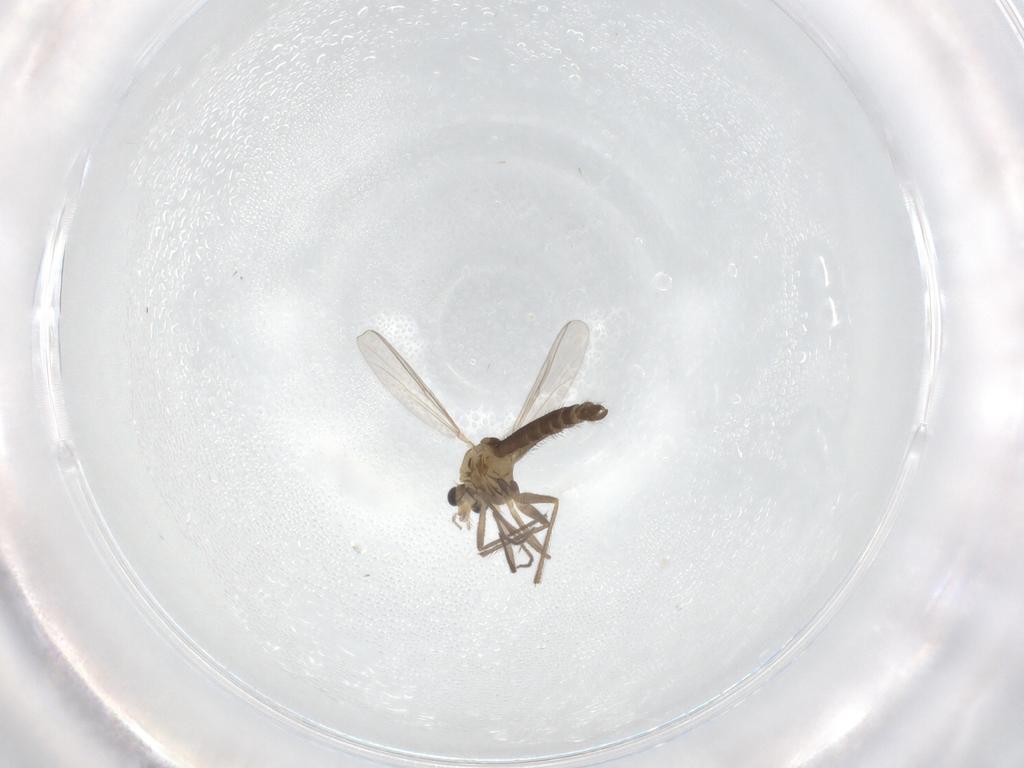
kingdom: Animalia
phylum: Arthropoda
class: Insecta
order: Diptera
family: Chironomidae
